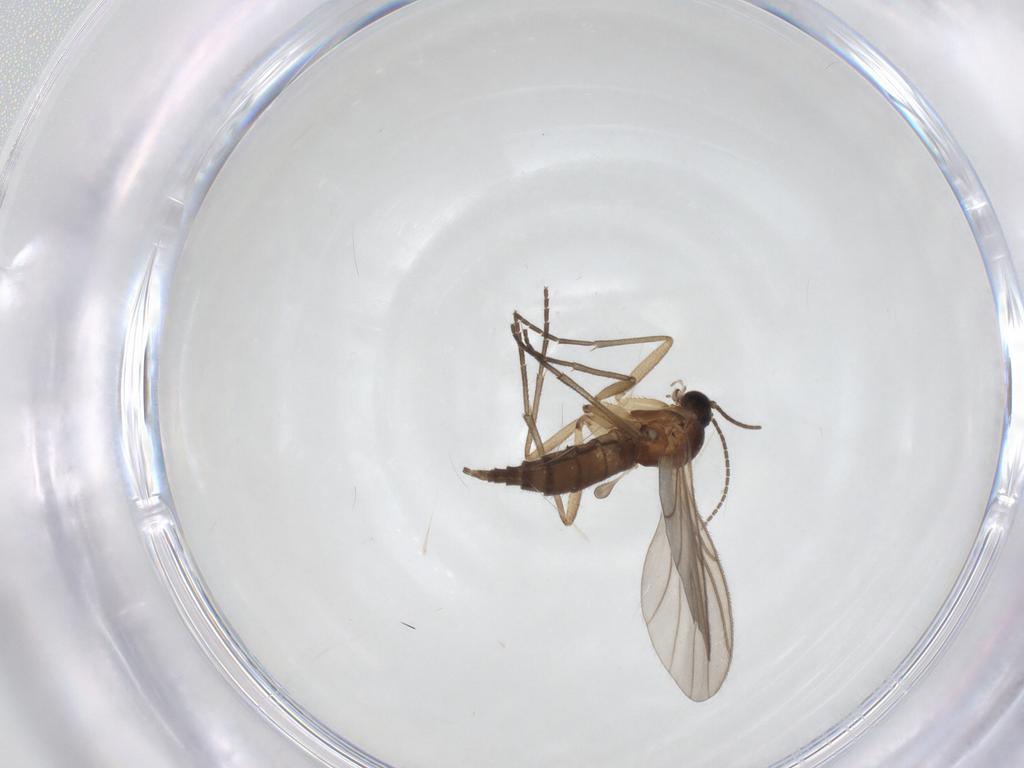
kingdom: Animalia
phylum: Arthropoda
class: Insecta
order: Diptera
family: Sciaridae
